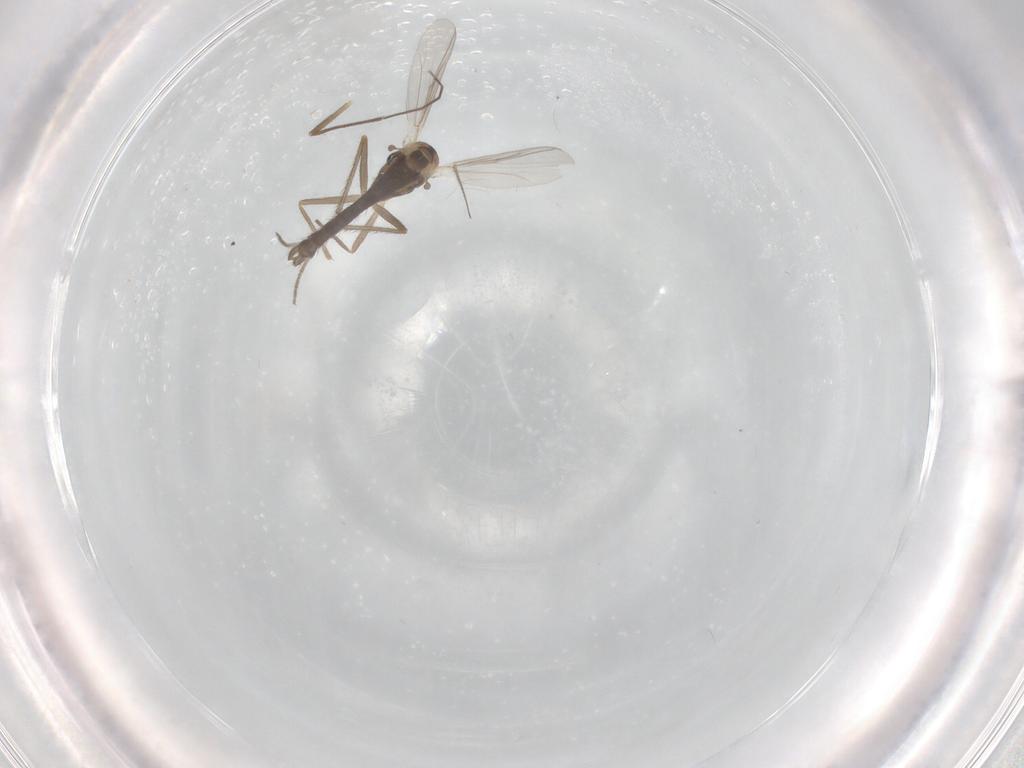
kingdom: Animalia
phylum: Arthropoda
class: Insecta
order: Diptera
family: Chironomidae
